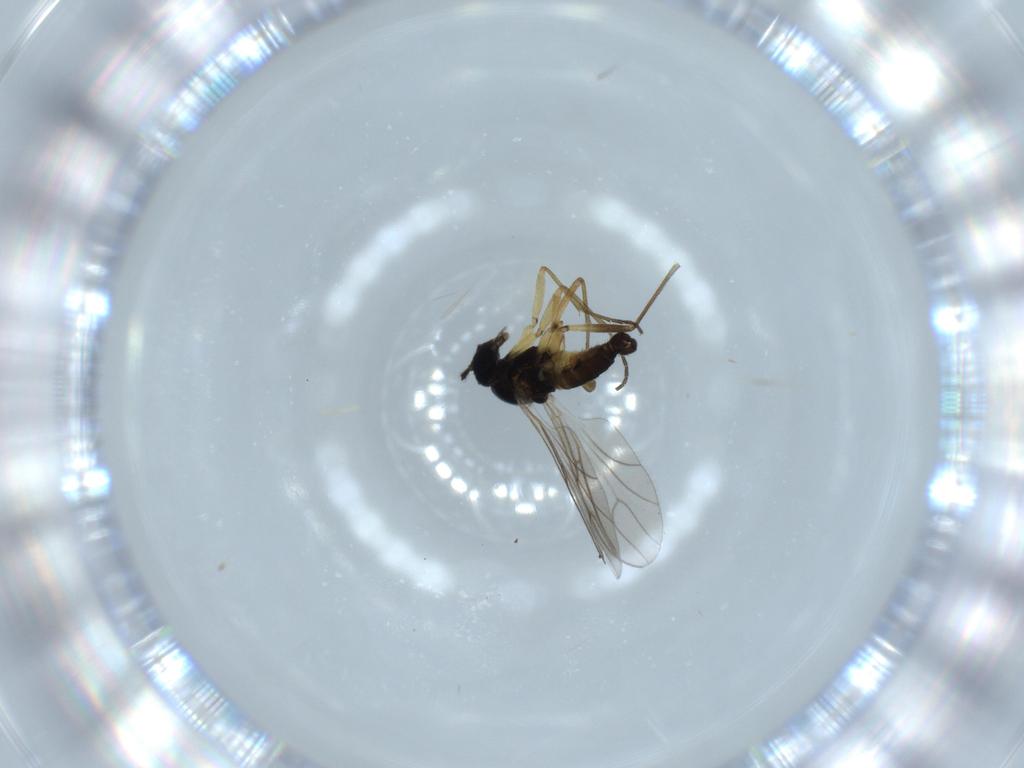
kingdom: Animalia
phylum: Arthropoda
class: Insecta
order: Diptera
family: Sciaridae
